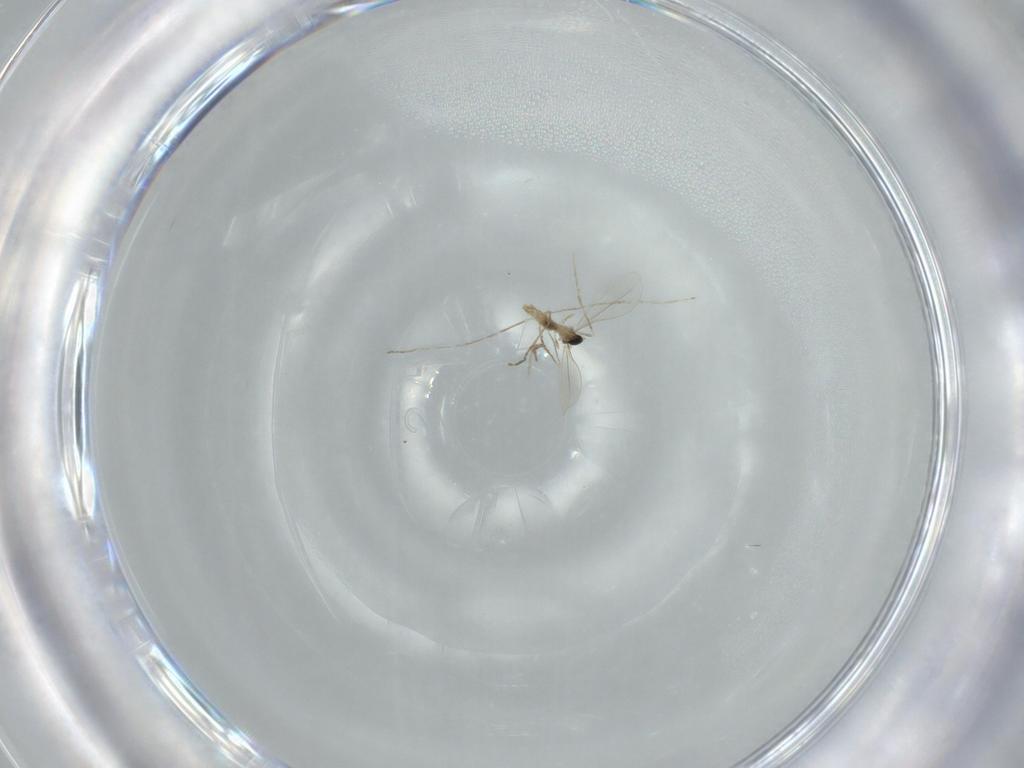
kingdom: Animalia
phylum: Arthropoda
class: Insecta
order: Diptera
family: Cecidomyiidae
